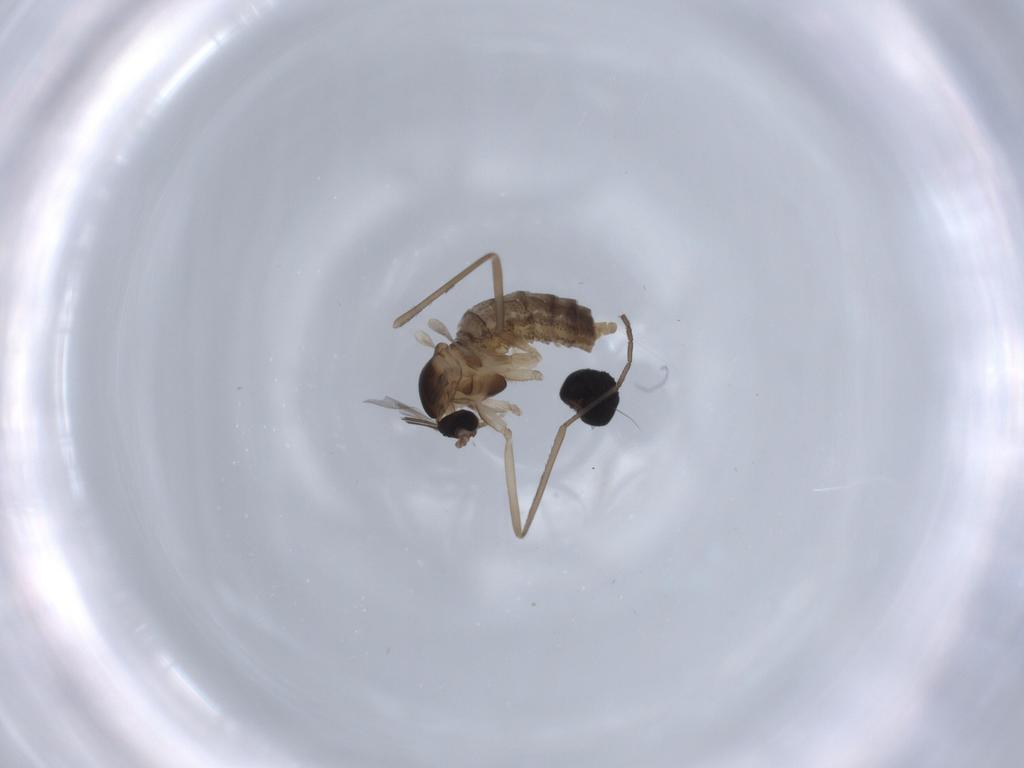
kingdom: Animalia
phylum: Arthropoda
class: Insecta
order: Diptera
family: Cecidomyiidae
